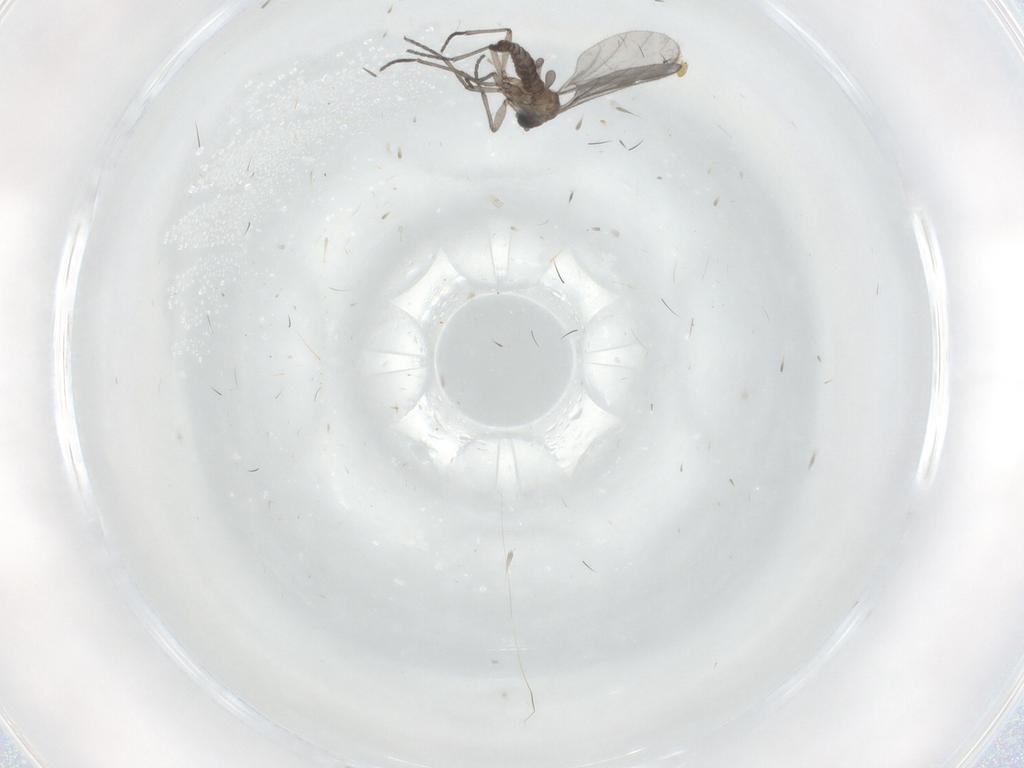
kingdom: Animalia
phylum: Arthropoda
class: Insecta
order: Diptera
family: Sciaridae
